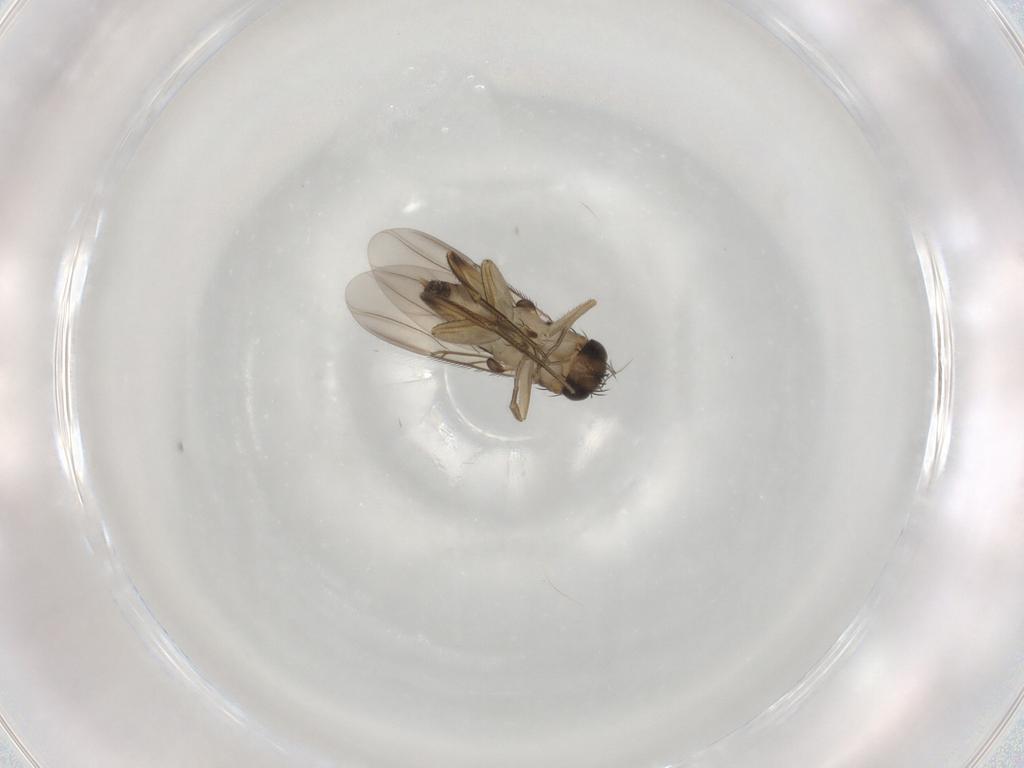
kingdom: Animalia
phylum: Arthropoda
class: Insecta
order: Diptera
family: Phoridae
